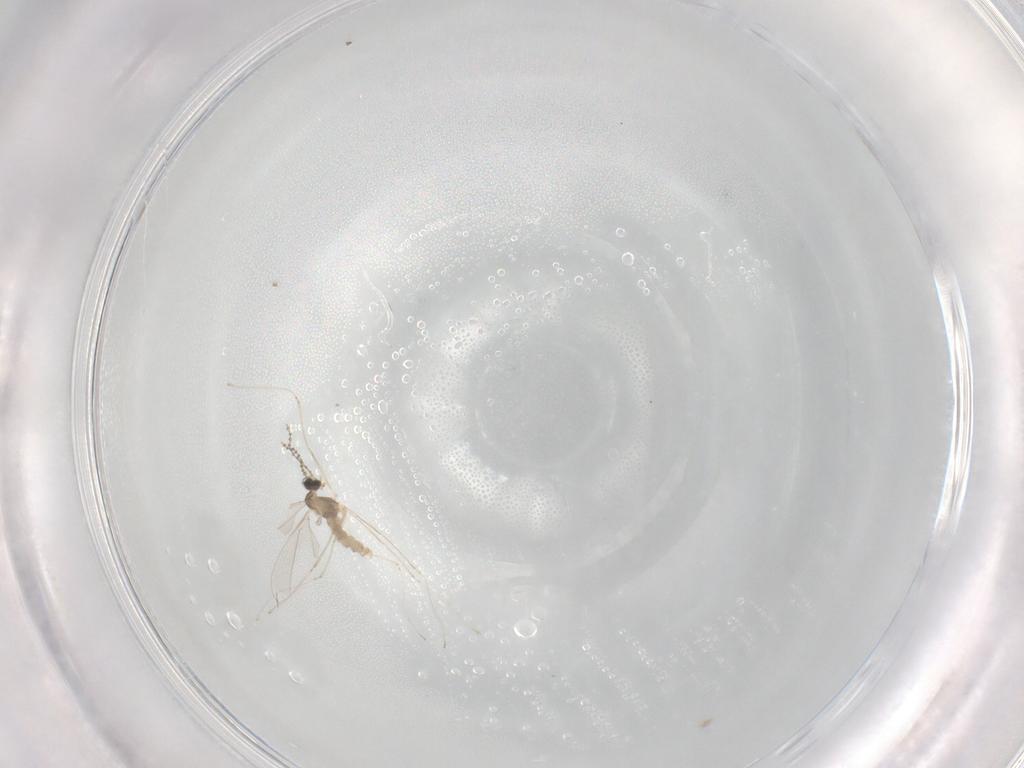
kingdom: Animalia
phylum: Arthropoda
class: Insecta
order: Diptera
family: Cecidomyiidae
